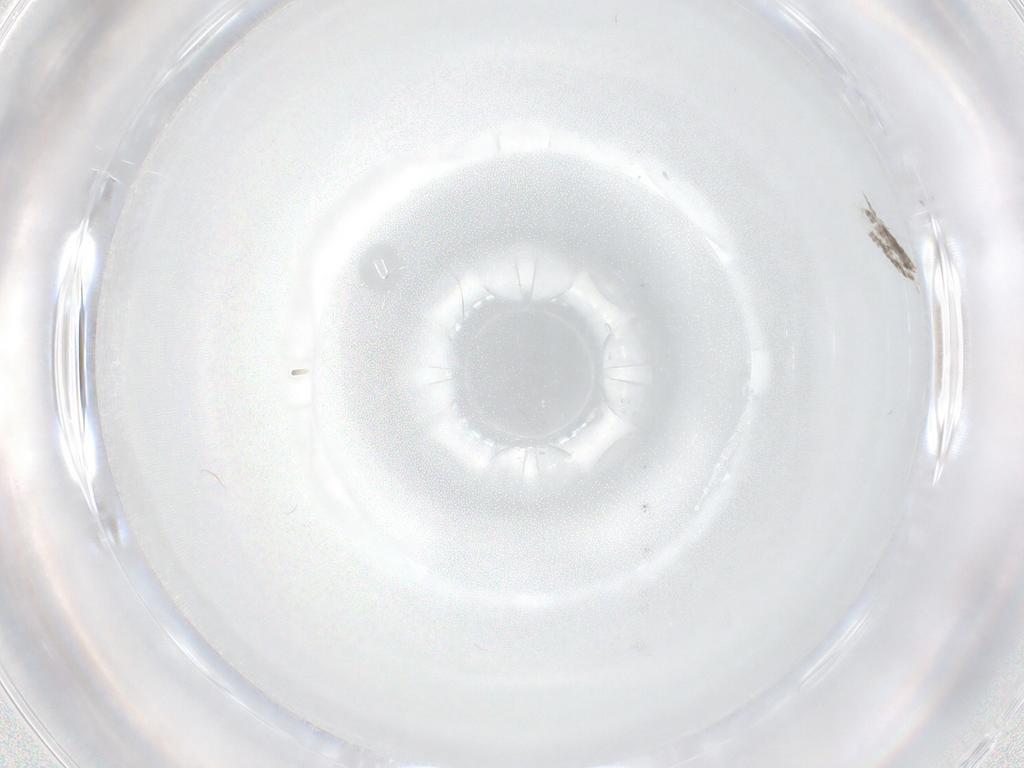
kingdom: Animalia
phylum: Arthropoda
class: Insecta
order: Diptera
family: Dolichopodidae
